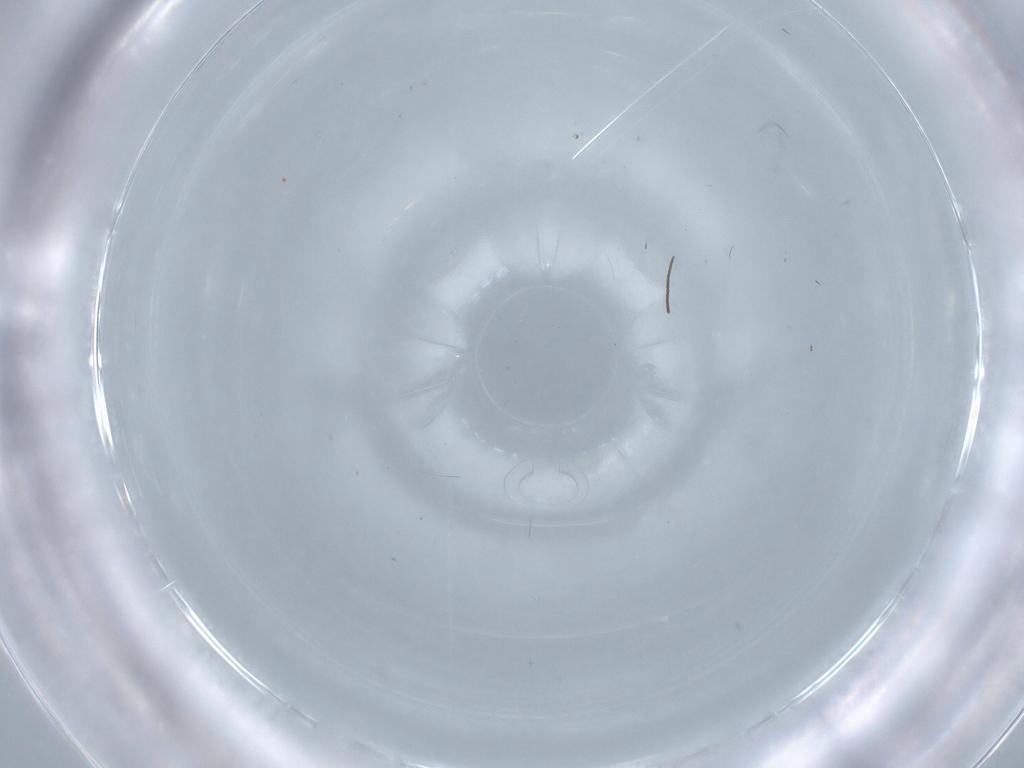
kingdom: Animalia
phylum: Arthropoda
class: Insecta
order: Diptera
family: Cecidomyiidae
